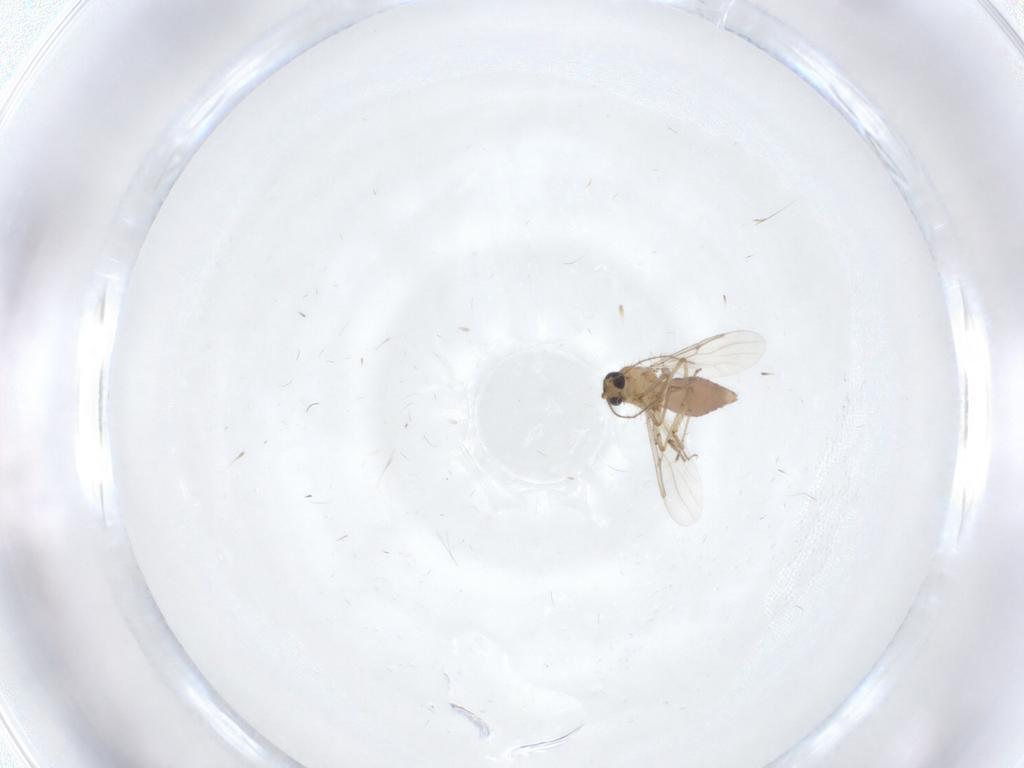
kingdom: Animalia
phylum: Arthropoda
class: Insecta
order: Diptera
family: Ceratopogonidae
